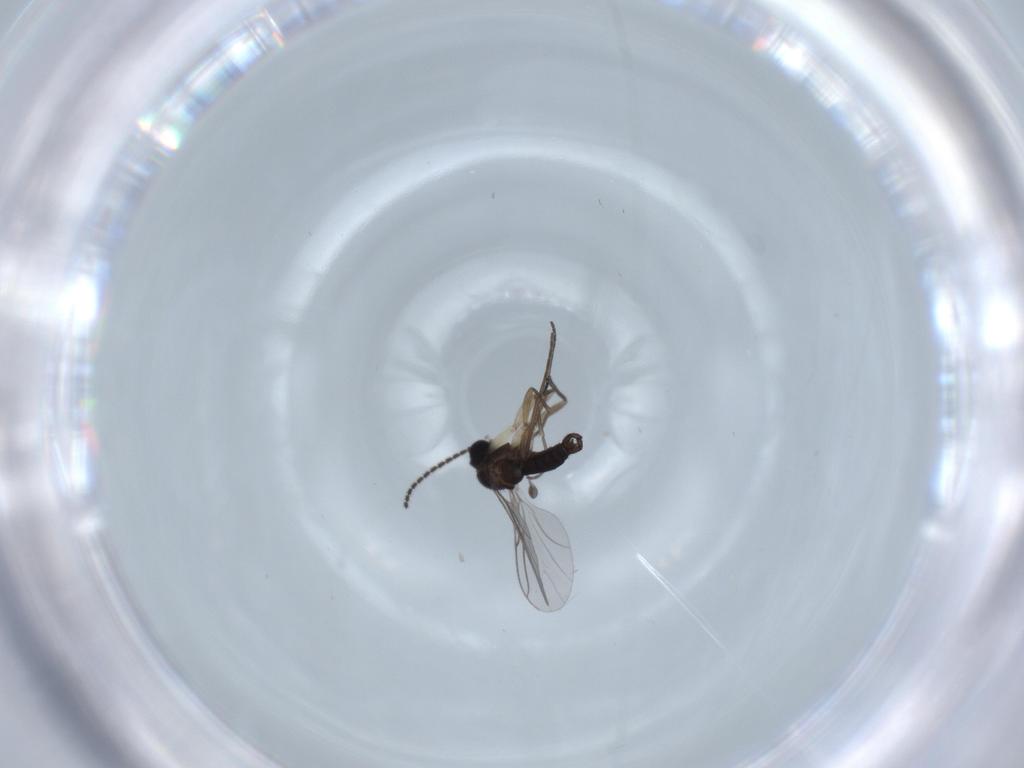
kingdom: Animalia
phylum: Arthropoda
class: Insecta
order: Diptera
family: Sciaridae
